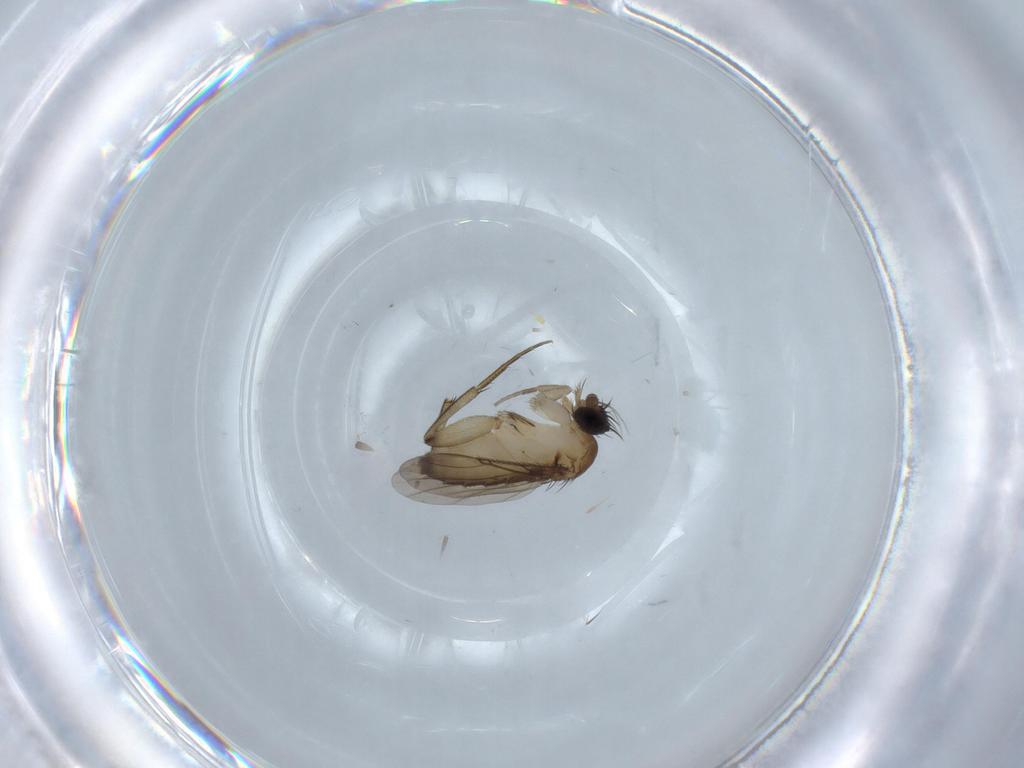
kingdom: Animalia
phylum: Arthropoda
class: Insecta
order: Diptera
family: Phoridae
